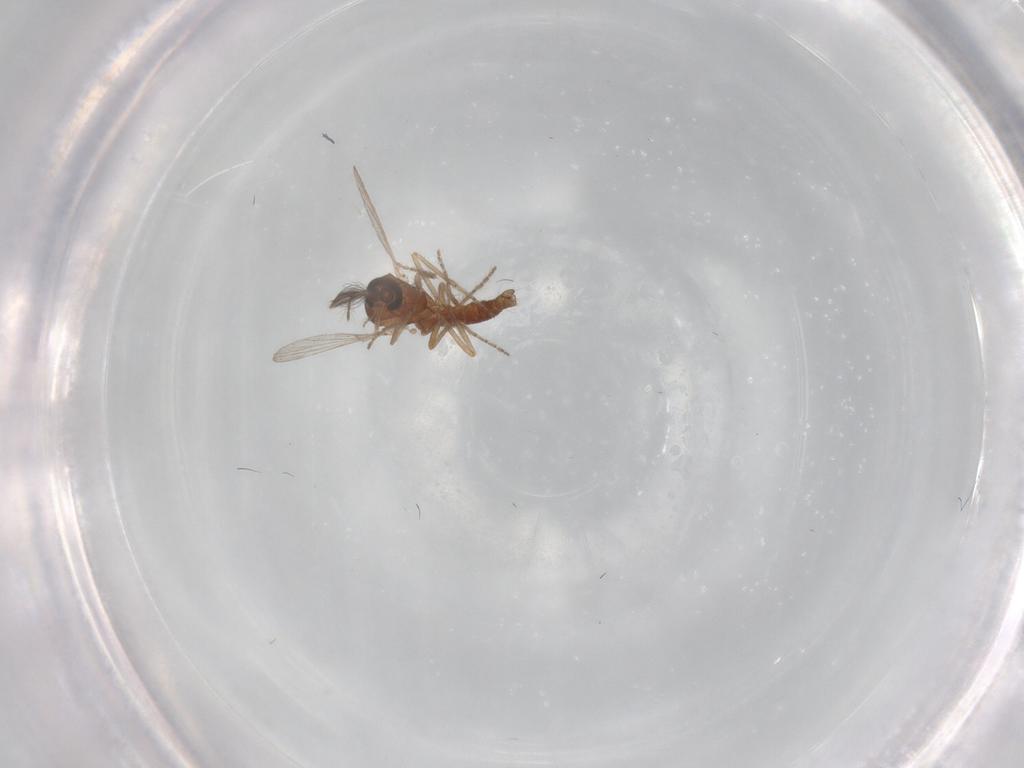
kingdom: Animalia
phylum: Arthropoda
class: Insecta
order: Diptera
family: Ceratopogonidae
